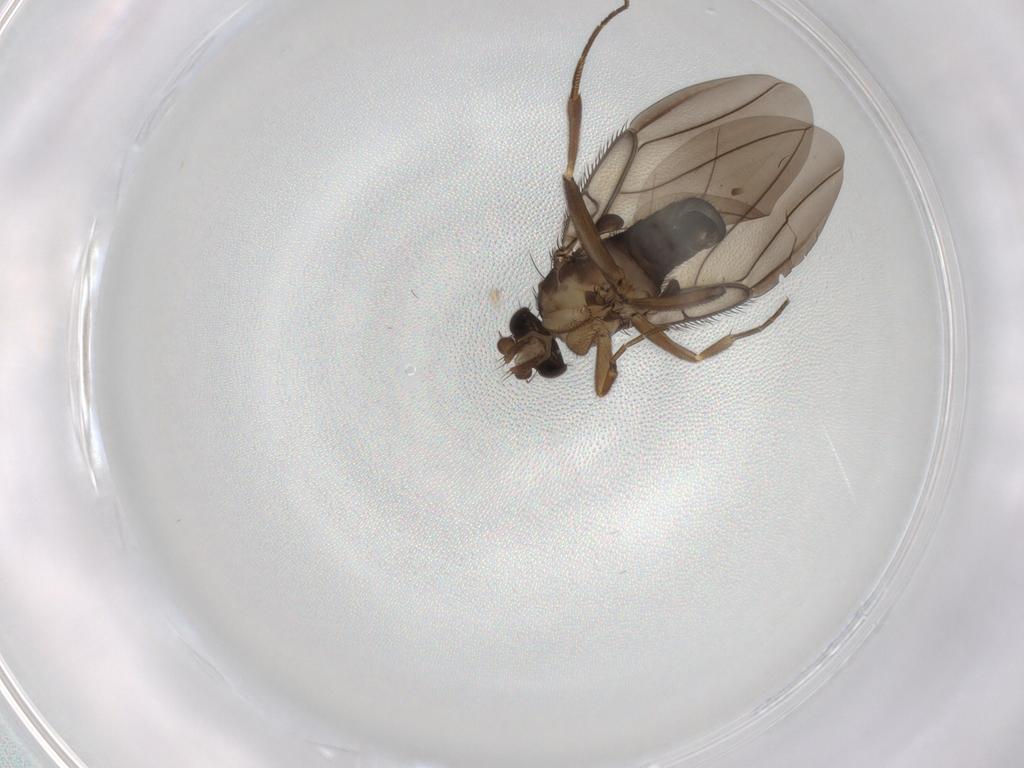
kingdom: Animalia
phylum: Arthropoda
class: Insecta
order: Diptera
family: Phoridae
